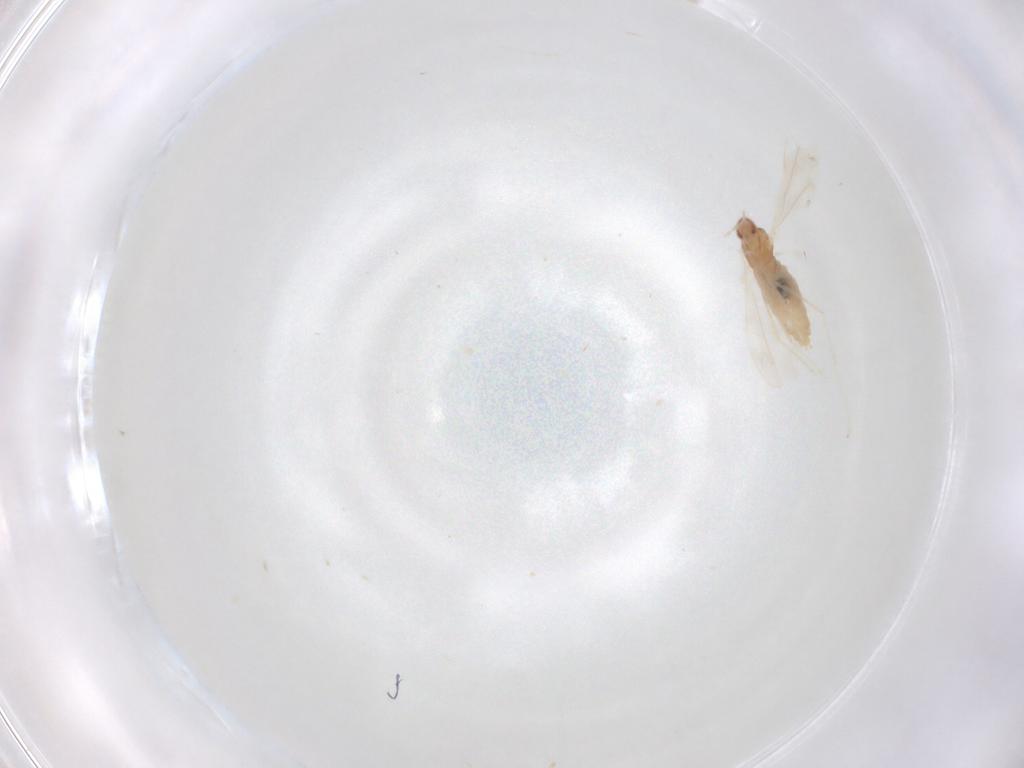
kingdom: Animalia
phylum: Arthropoda
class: Insecta
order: Diptera
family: Cecidomyiidae
